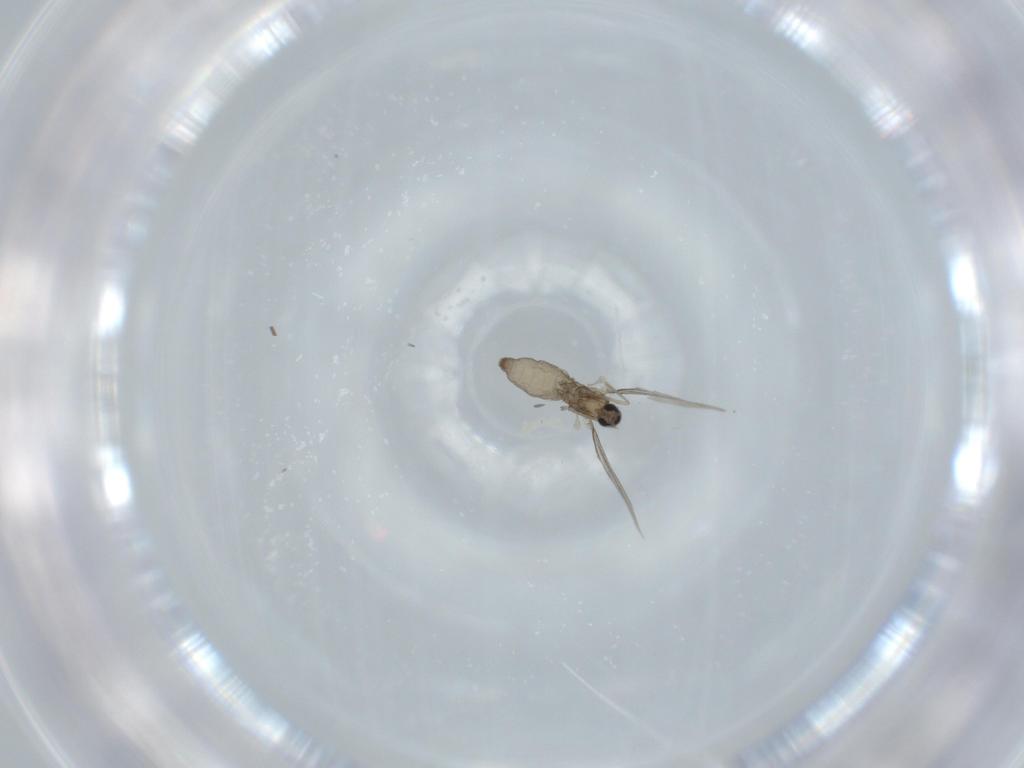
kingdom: Animalia
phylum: Arthropoda
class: Insecta
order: Diptera
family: Cecidomyiidae
